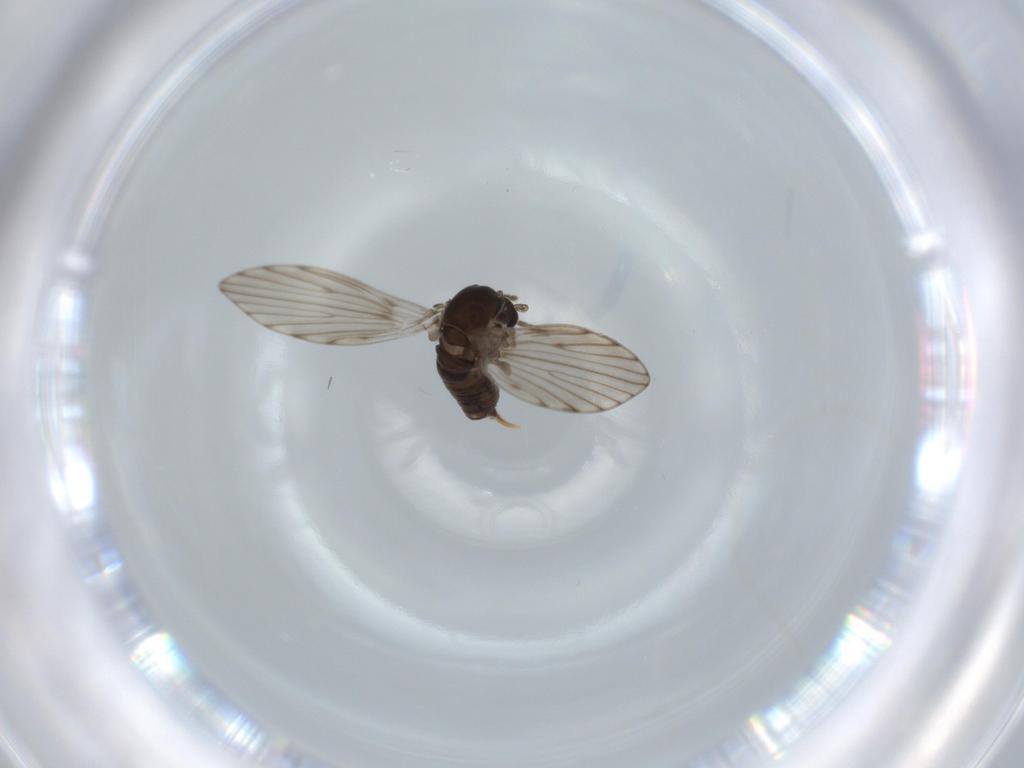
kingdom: Animalia
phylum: Arthropoda
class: Insecta
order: Diptera
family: Psychodidae
